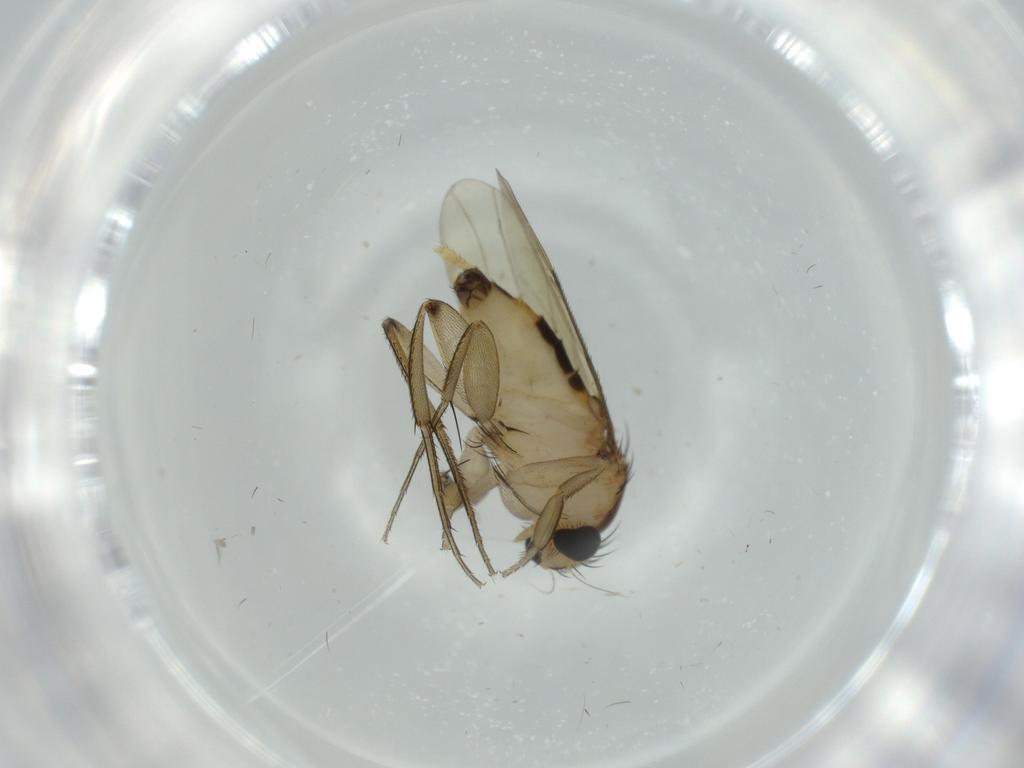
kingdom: Animalia
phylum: Arthropoda
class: Insecta
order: Diptera
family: Phoridae
